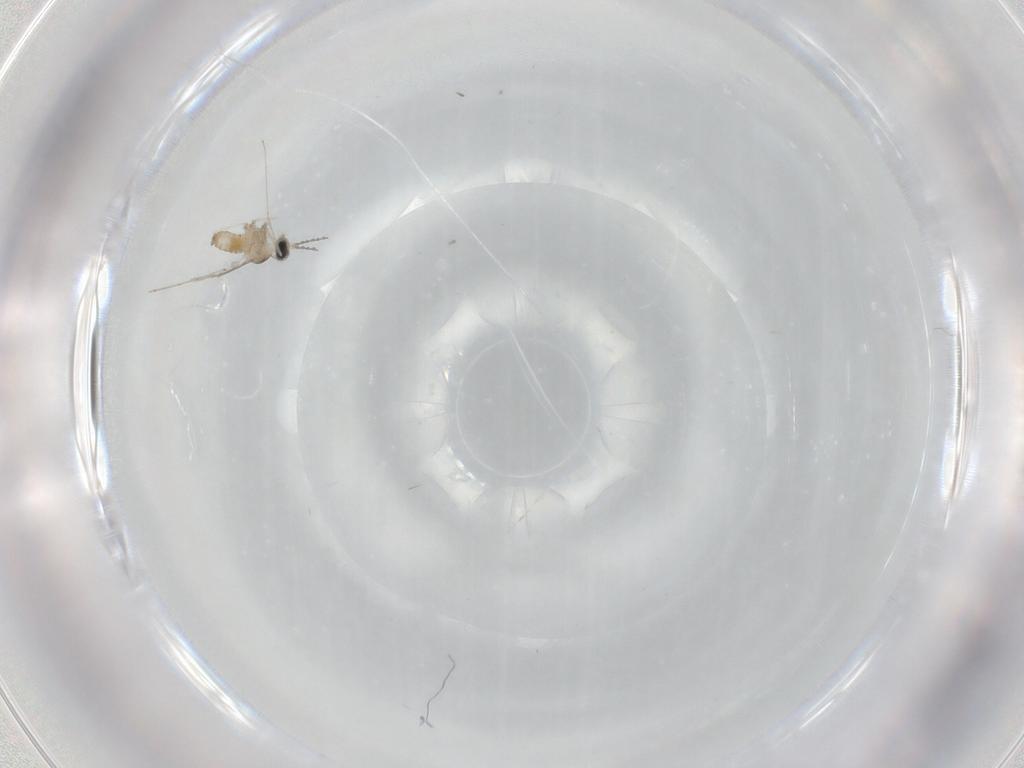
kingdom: Animalia
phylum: Arthropoda
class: Insecta
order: Diptera
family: Cecidomyiidae
